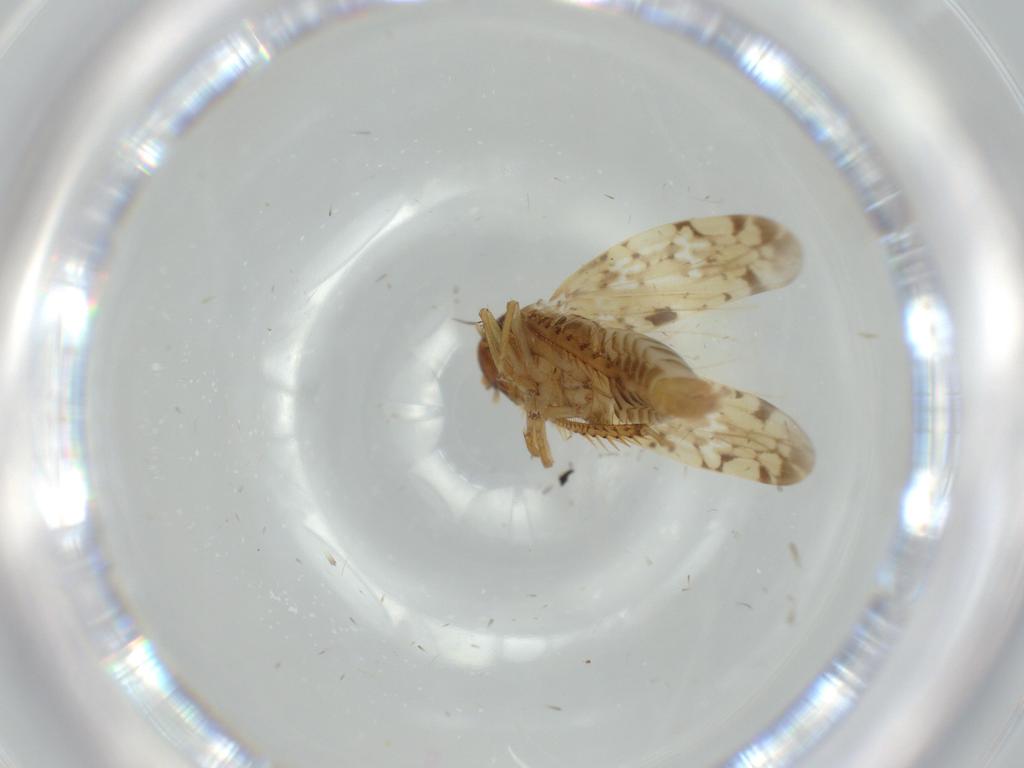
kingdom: Animalia
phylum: Arthropoda
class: Insecta
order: Hemiptera
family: Cicadellidae
